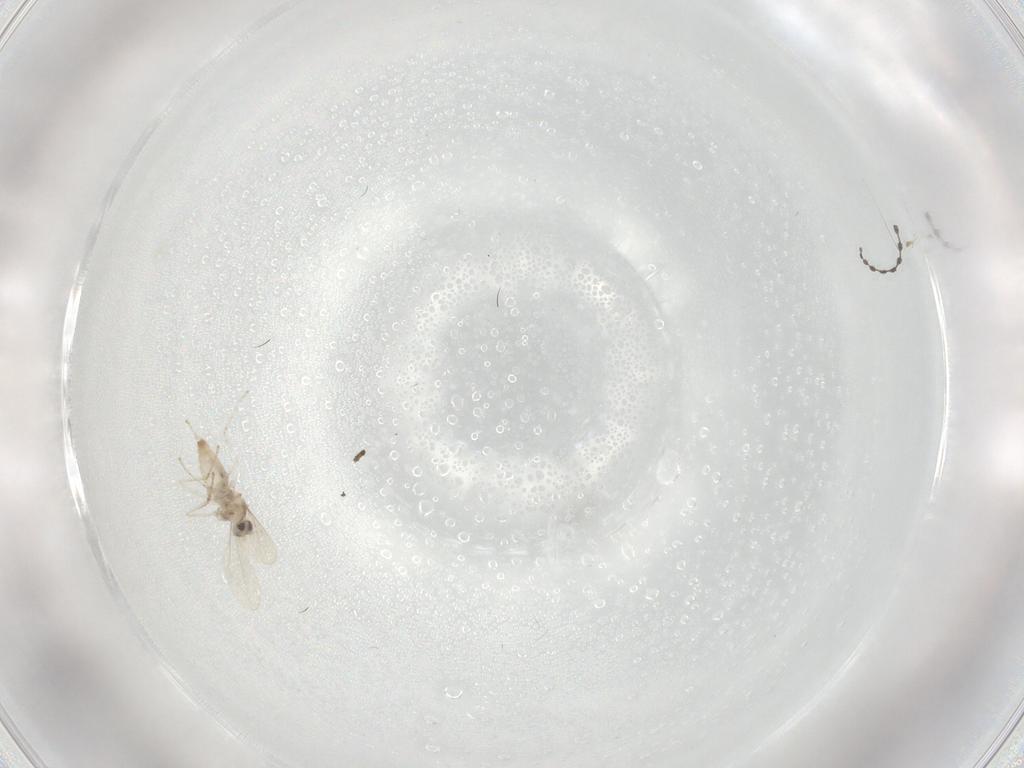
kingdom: Animalia
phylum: Arthropoda
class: Insecta
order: Diptera
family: Cecidomyiidae
